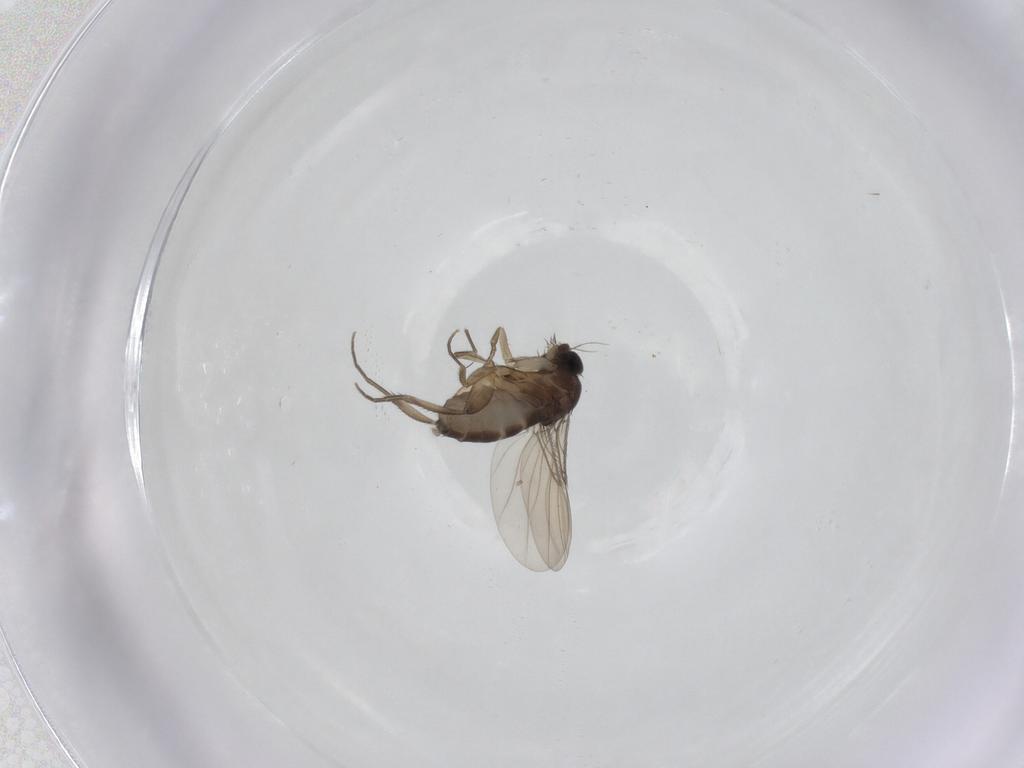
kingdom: Animalia
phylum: Arthropoda
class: Insecta
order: Diptera
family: Phoridae
